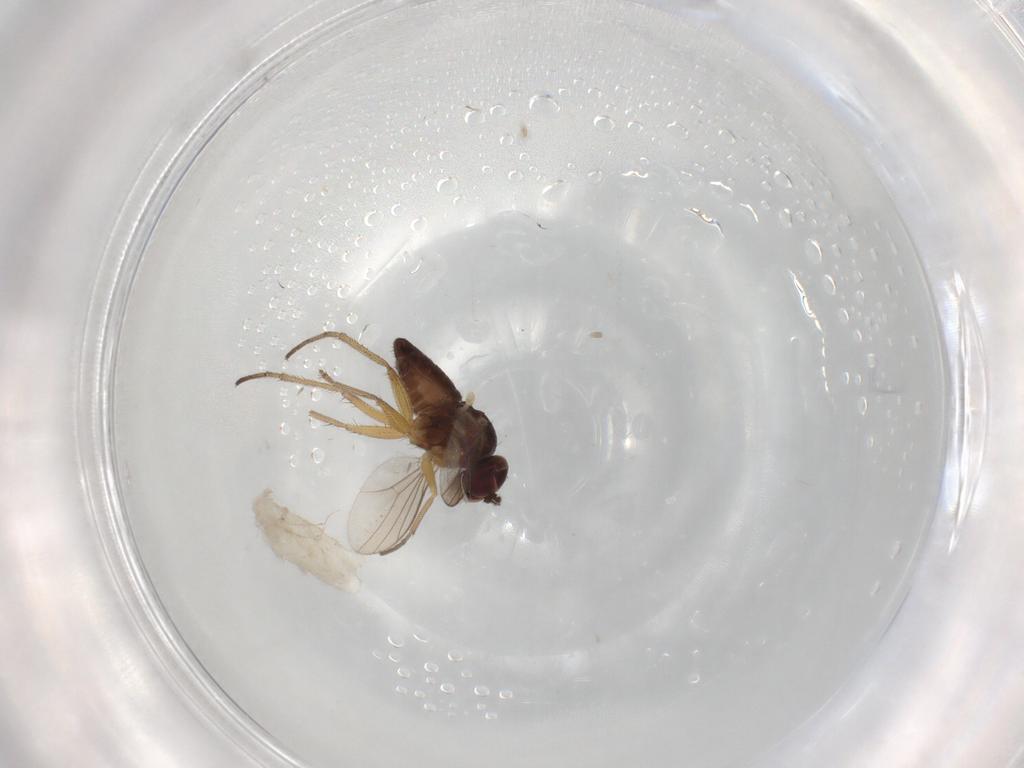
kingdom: Animalia
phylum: Arthropoda
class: Insecta
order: Diptera
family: Dolichopodidae
